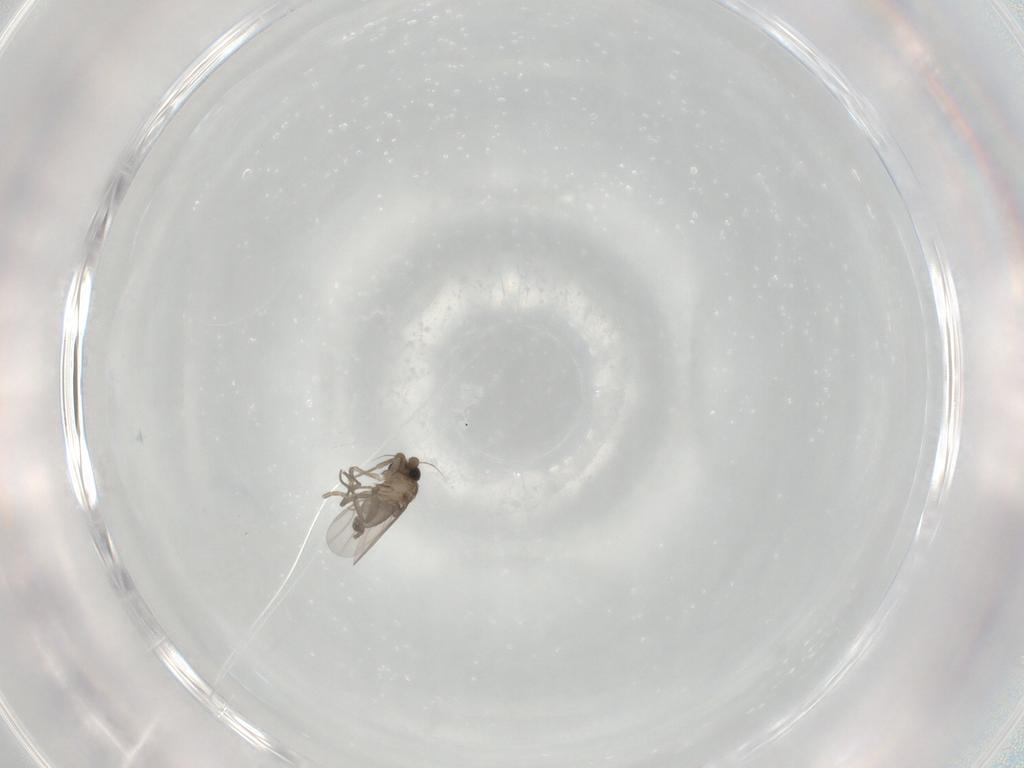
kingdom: Animalia
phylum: Arthropoda
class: Insecta
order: Diptera
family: Phoridae
